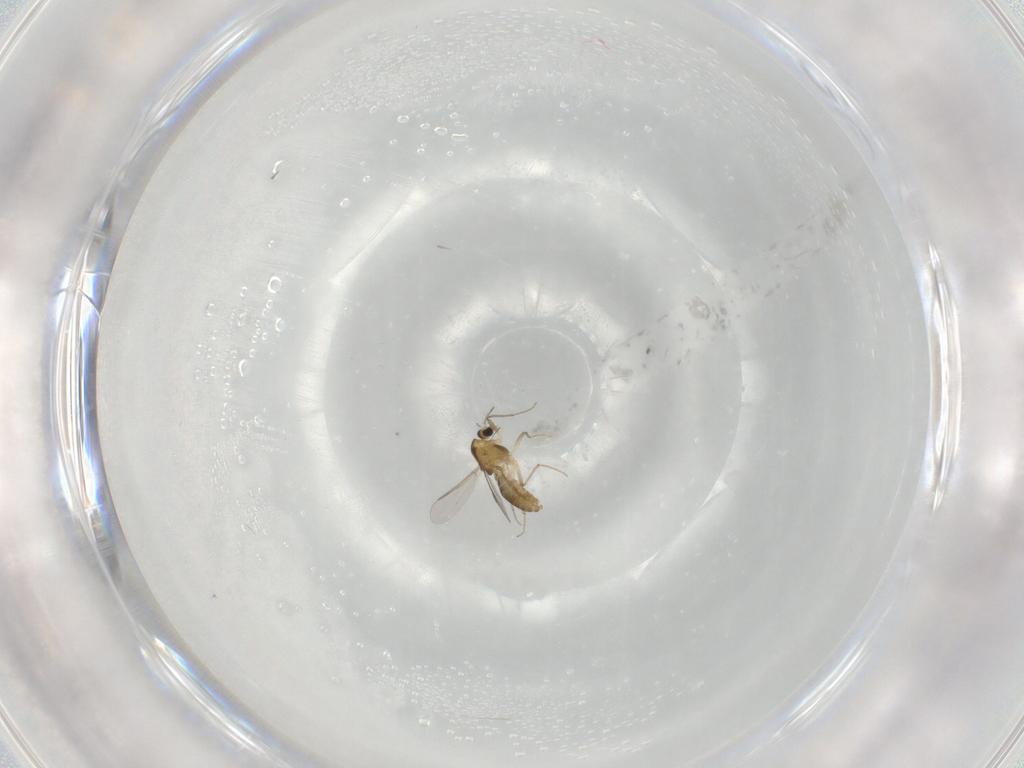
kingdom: Animalia
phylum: Arthropoda
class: Insecta
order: Diptera
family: Chironomidae
